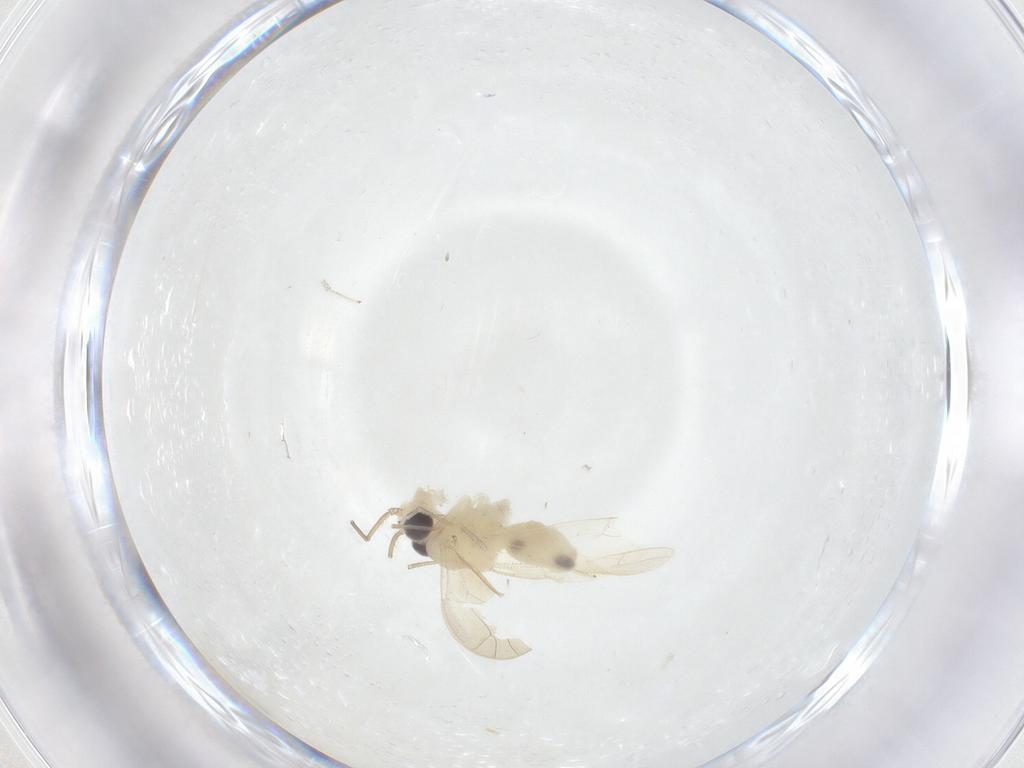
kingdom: Animalia
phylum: Arthropoda
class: Insecta
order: Psocodea
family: Caeciliusidae
